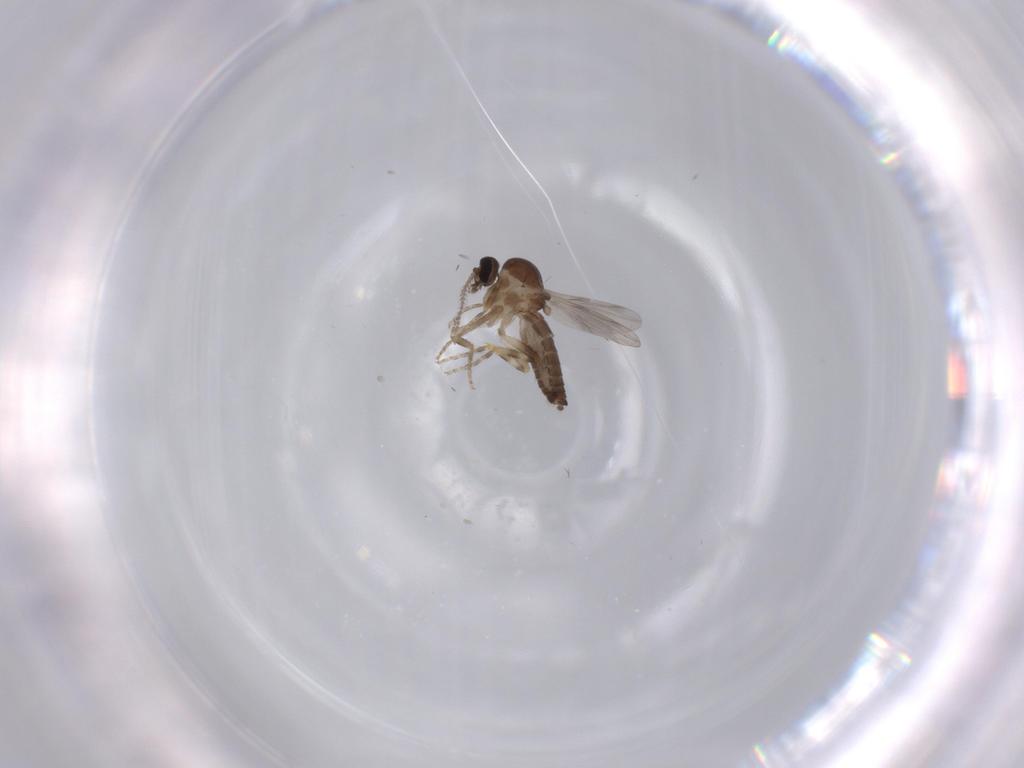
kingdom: Animalia
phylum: Arthropoda
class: Insecta
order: Diptera
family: Ceratopogonidae
